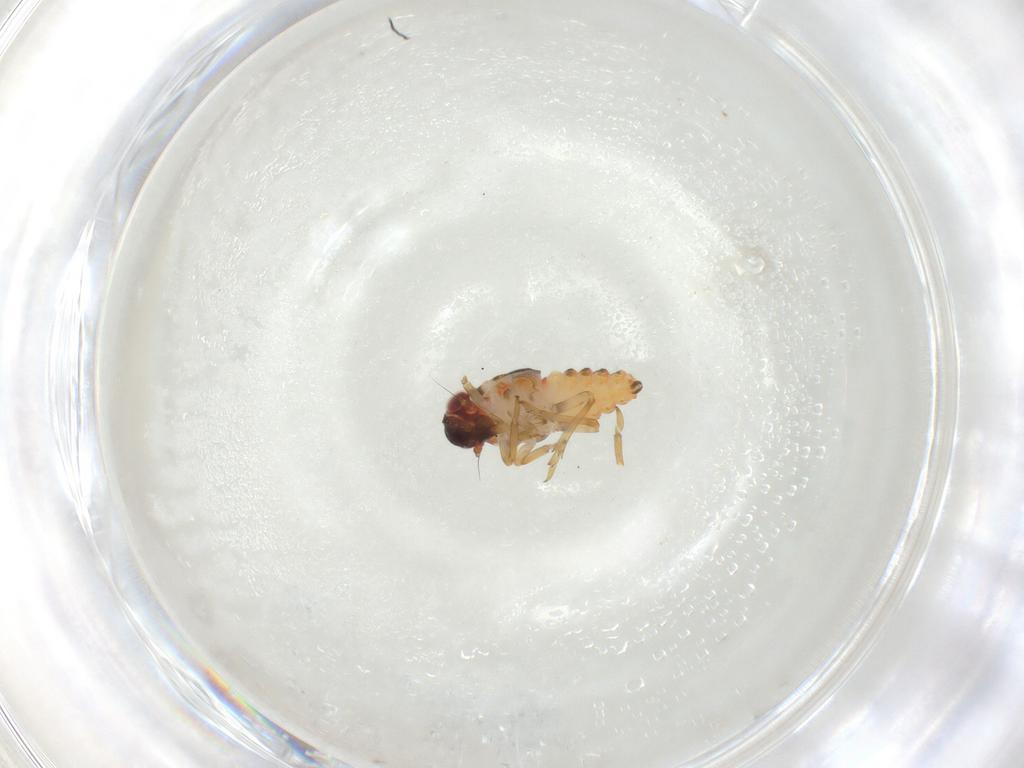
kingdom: Animalia
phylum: Arthropoda
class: Insecta
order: Hemiptera
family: Issidae
